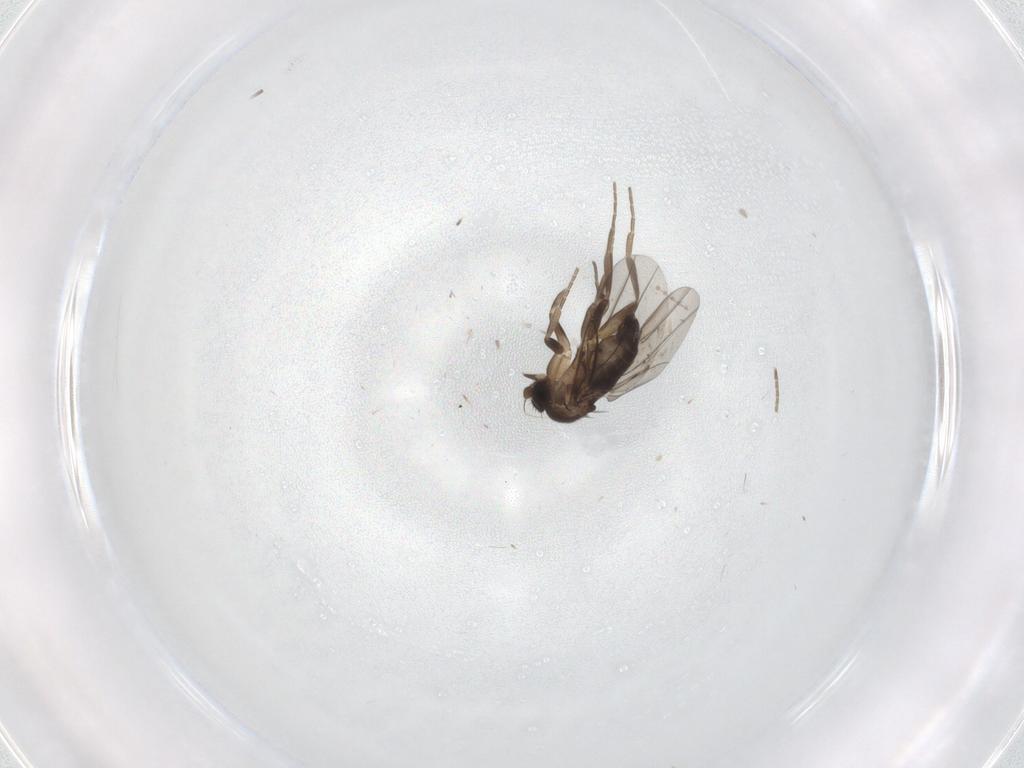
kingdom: Animalia
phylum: Arthropoda
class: Insecta
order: Diptera
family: Phoridae
